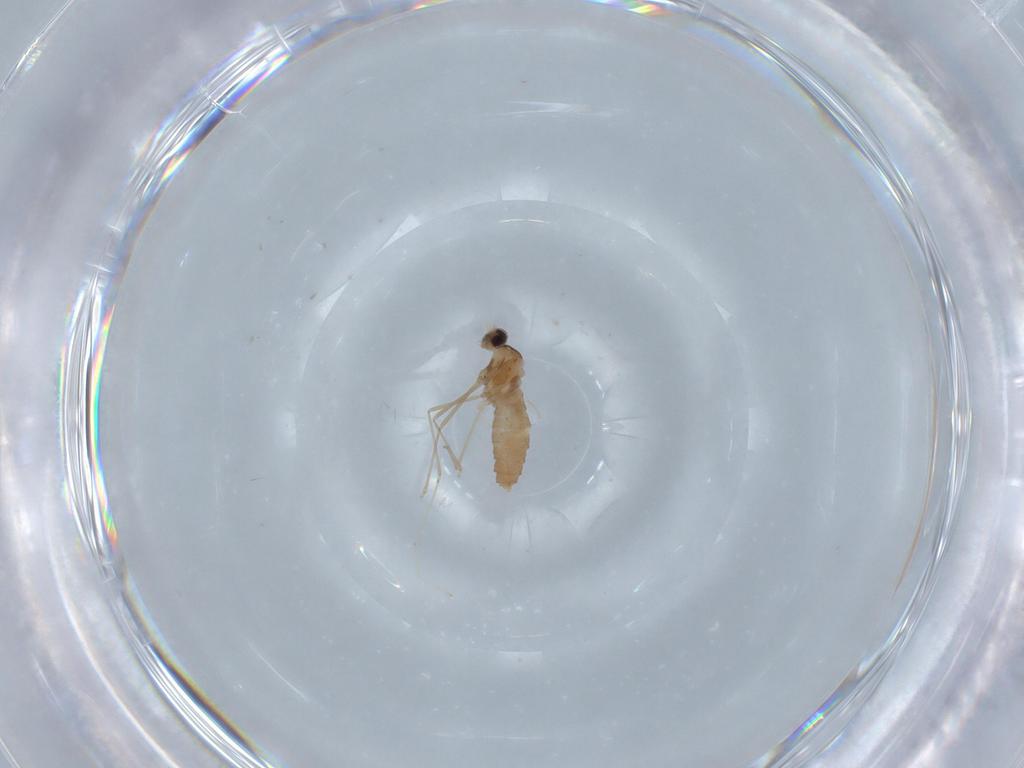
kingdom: Animalia
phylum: Arthropoda
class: Insecta
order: Diptera
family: Cecidomyiidae
